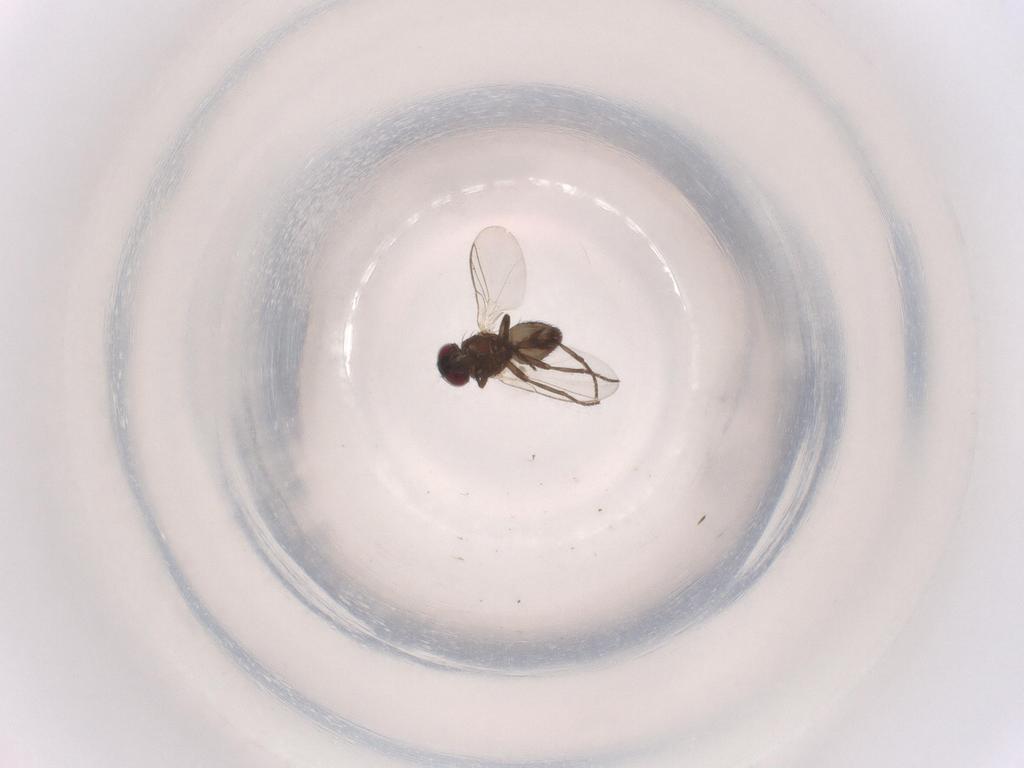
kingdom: Animalia
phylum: Arthropoda
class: Insecta
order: Diptera
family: Agromyzidae
